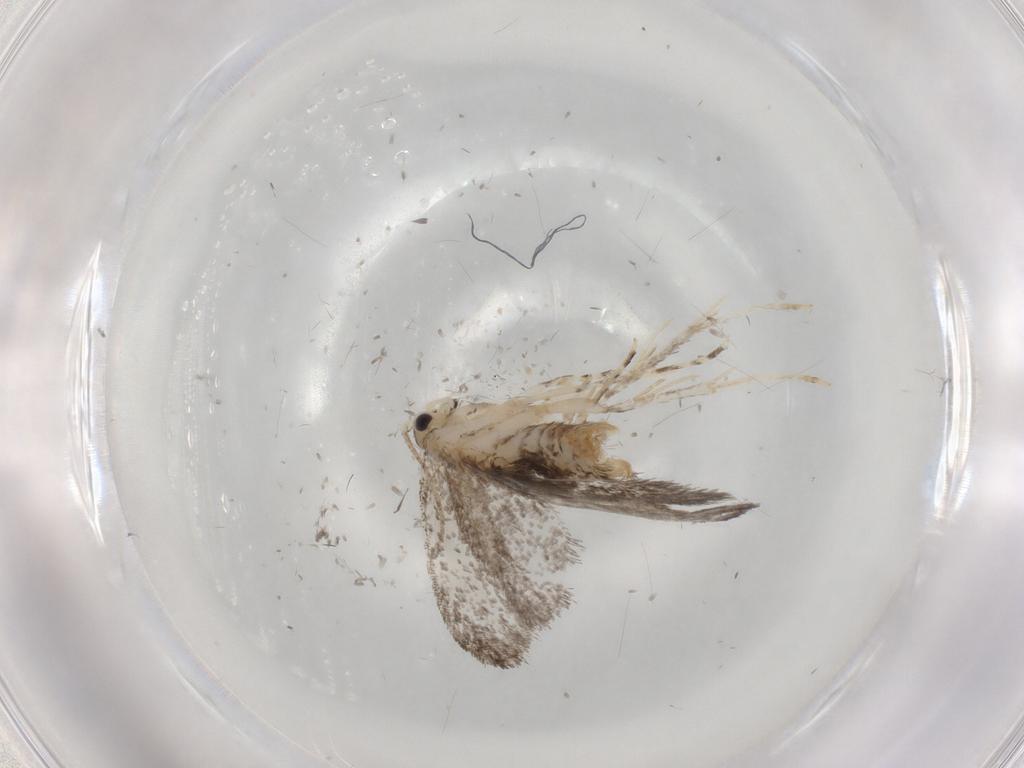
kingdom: Animalia
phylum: Arthropoda
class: Insecta
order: Lepidoptera
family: Tineidae
